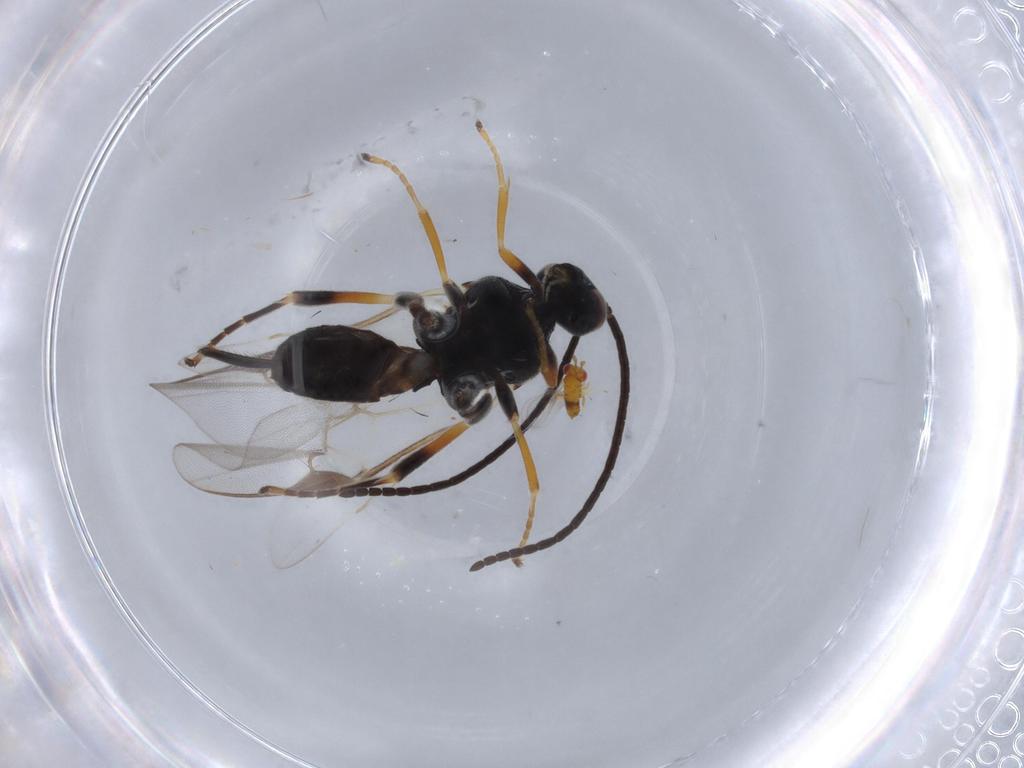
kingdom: Animalia
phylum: Arthropoda
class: Insecta
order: Hymenoptera
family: Braconidae
